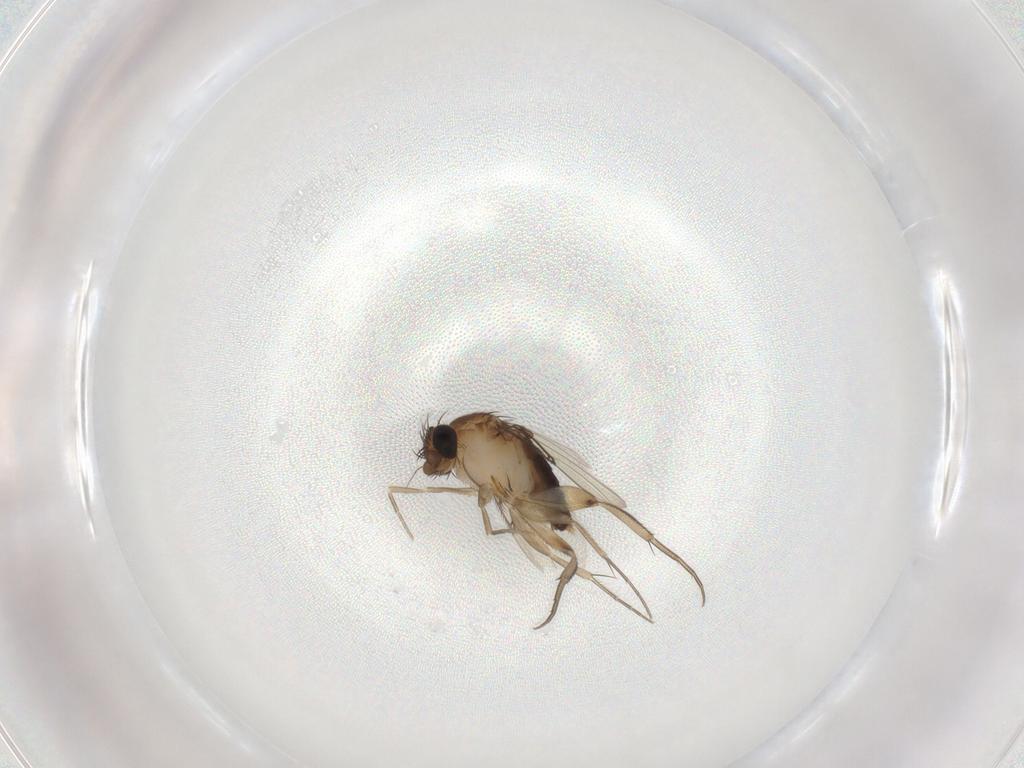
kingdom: Animalia
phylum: Arthropoda
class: Insecta
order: Diptera
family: Phoridae
